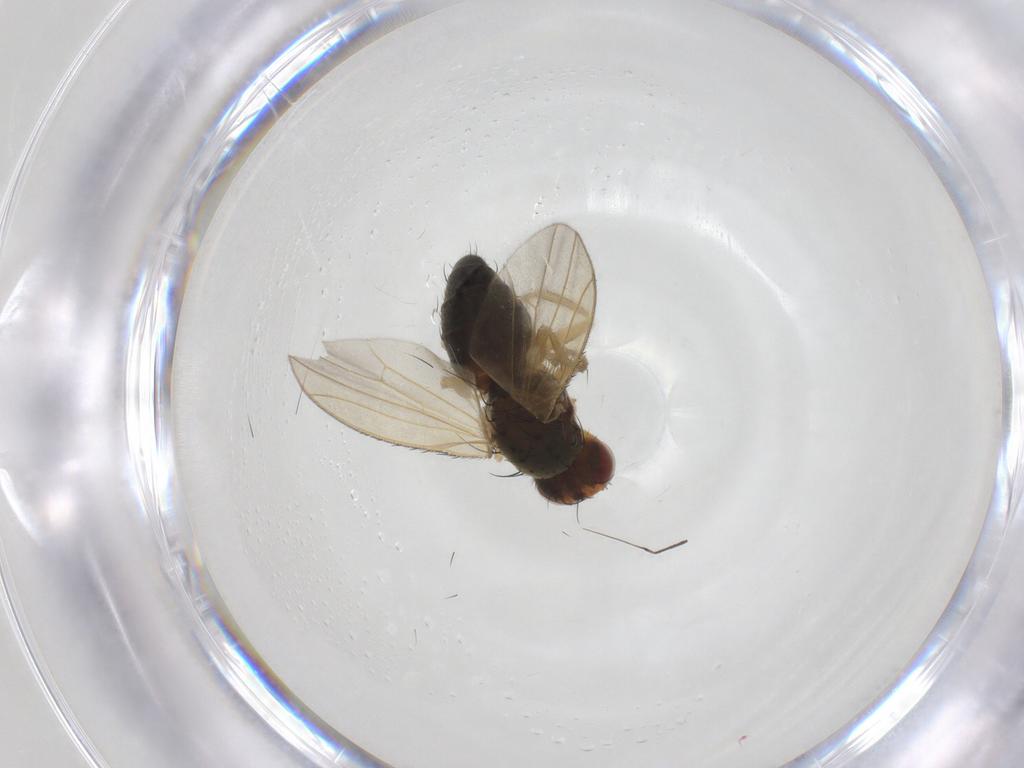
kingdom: Animalia
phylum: Arthropoda
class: Insecta
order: Diptera
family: Heleomyzidae
